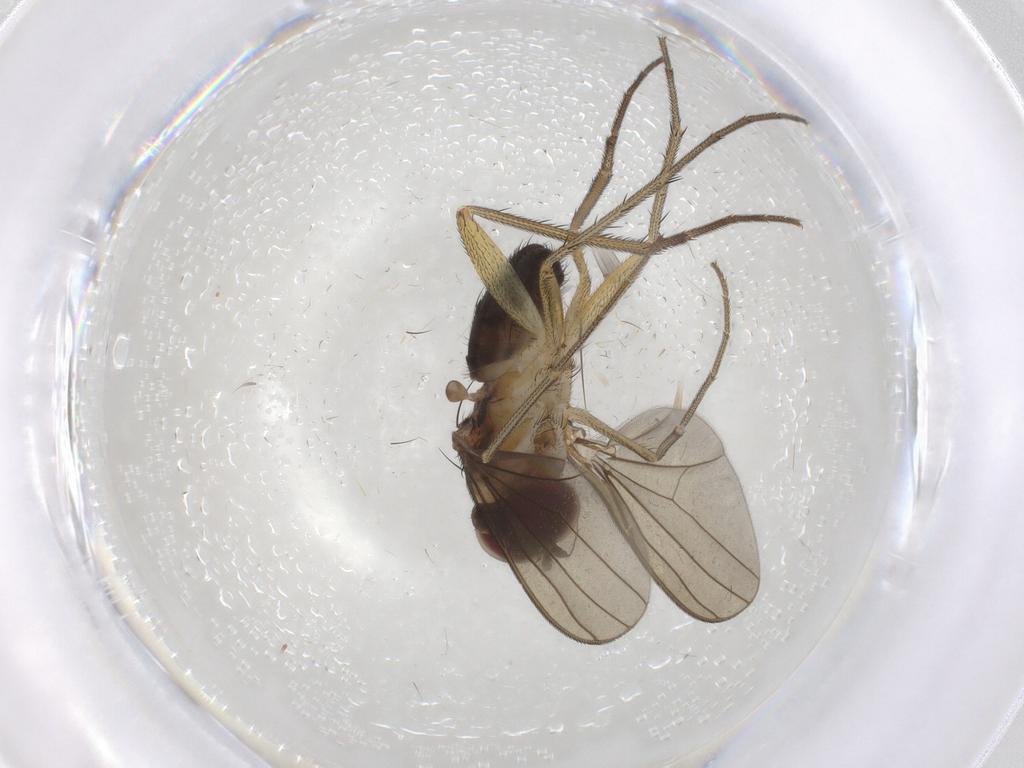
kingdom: Animalia
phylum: Arthropoda
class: Insecta
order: Diptera
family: Dolichopodidae
